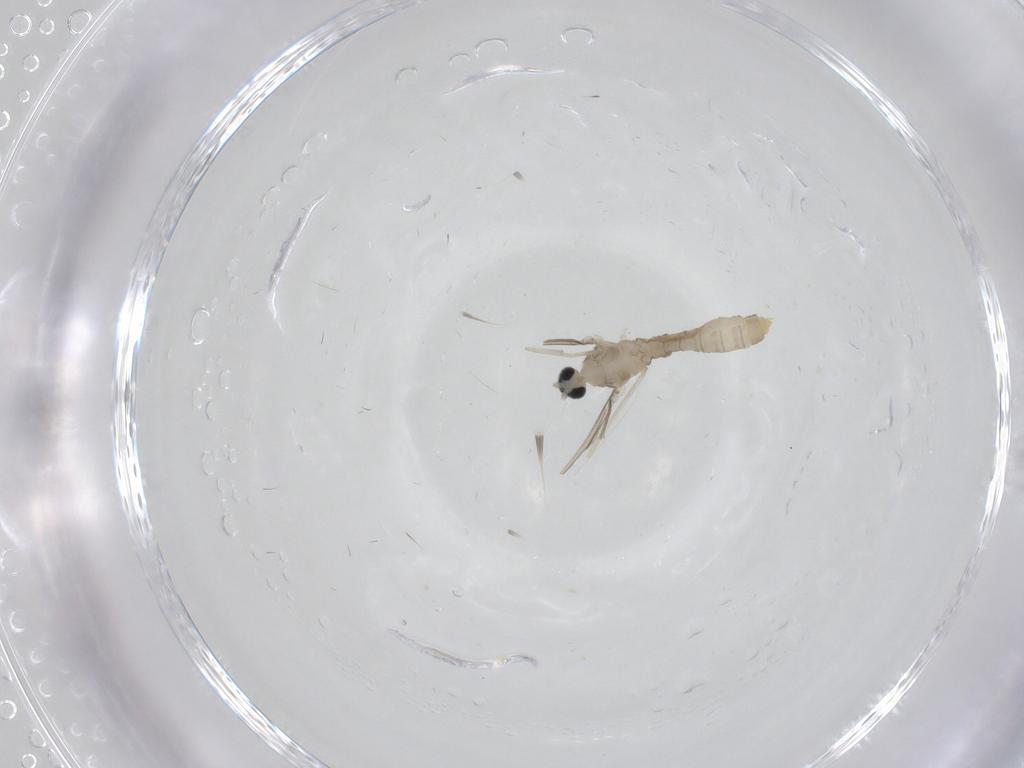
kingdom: Animalia
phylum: Arthropoda
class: Insecta
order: Diptera
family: Cecidomyiidae
